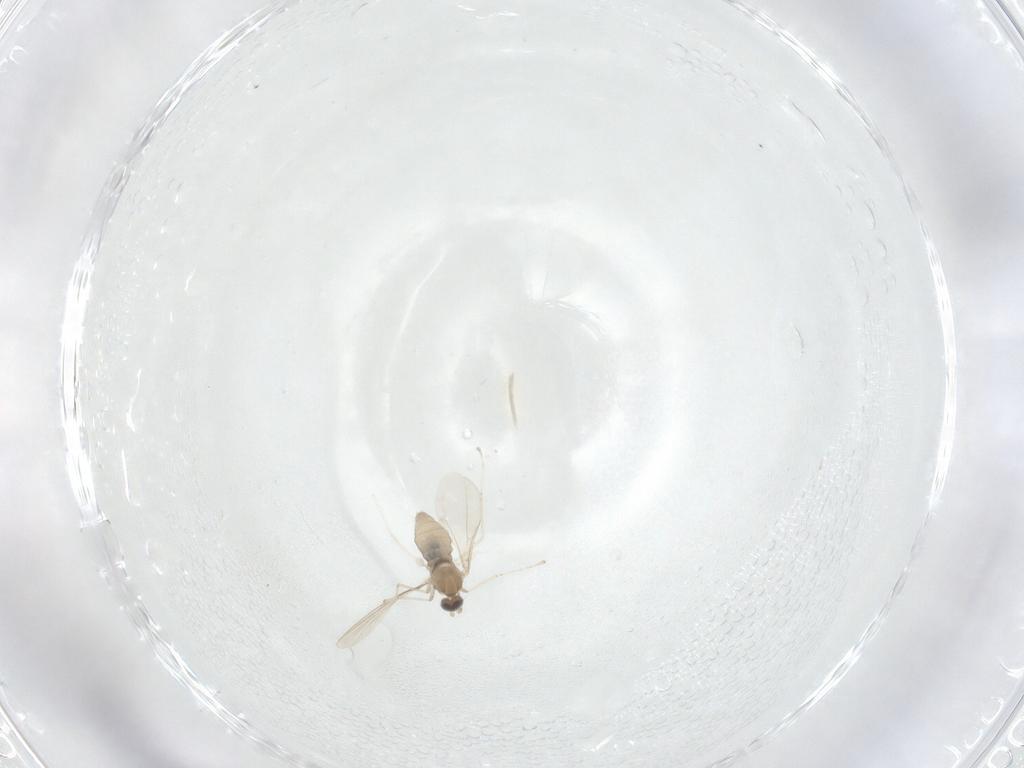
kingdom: Animalia
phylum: Arthropoda
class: Insecta
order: Diptera
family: Cecidomyiidae
